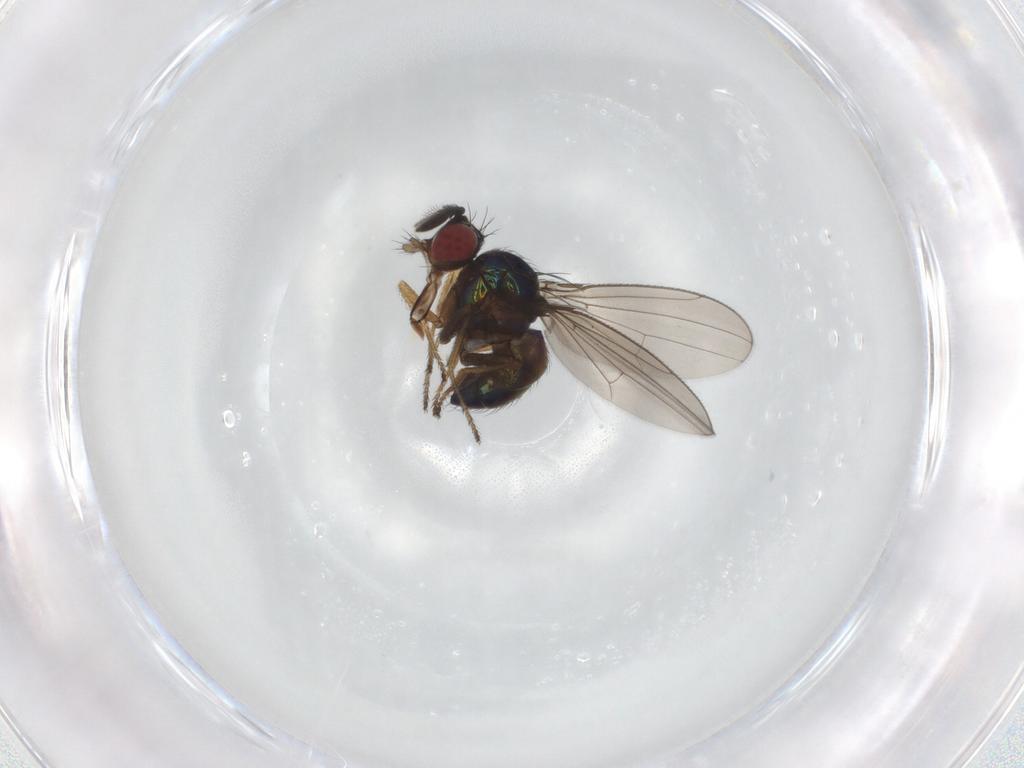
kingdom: Animalia
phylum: Arthropoda
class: Insecta
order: Diptera
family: Ephydridae
